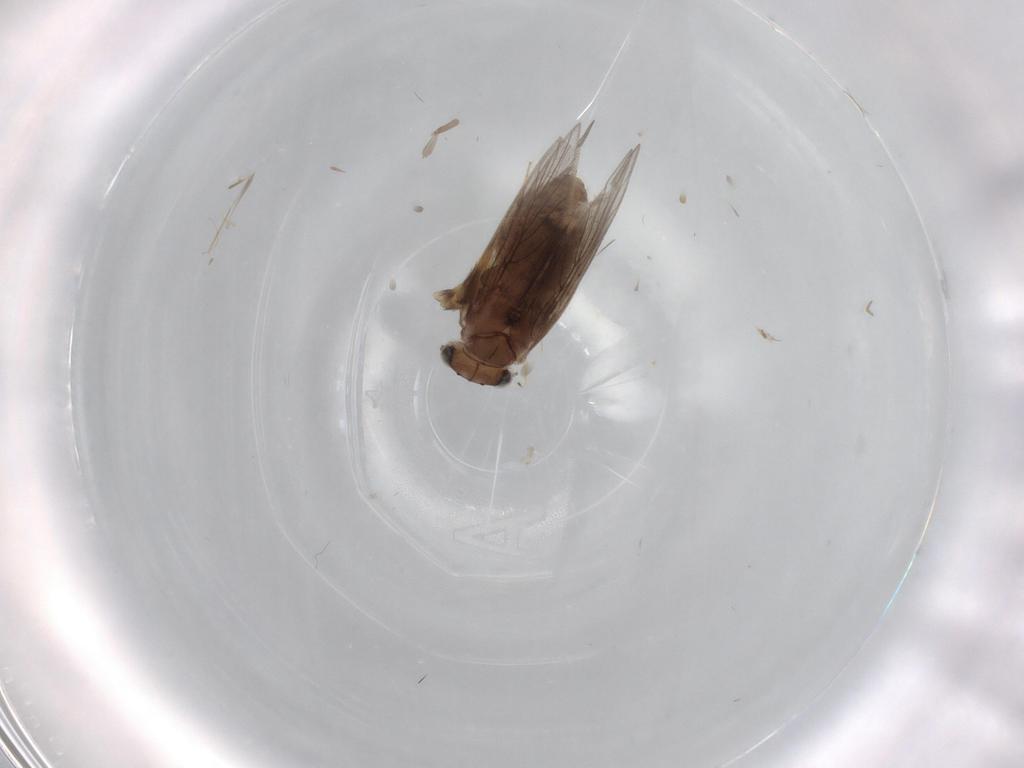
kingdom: Animalia
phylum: Arthropoda
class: Insecta
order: Psocodea
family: Lepidopsocidae
